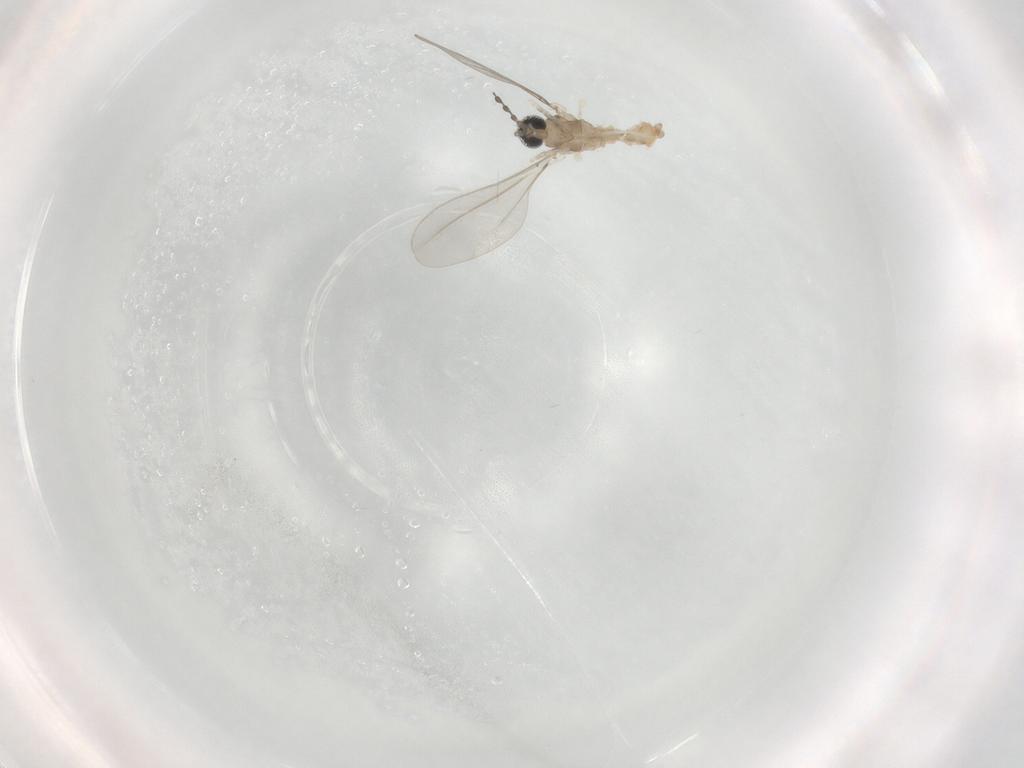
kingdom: Animalia
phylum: Arthropoda
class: Insecta
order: Diptera
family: Chironomidae
